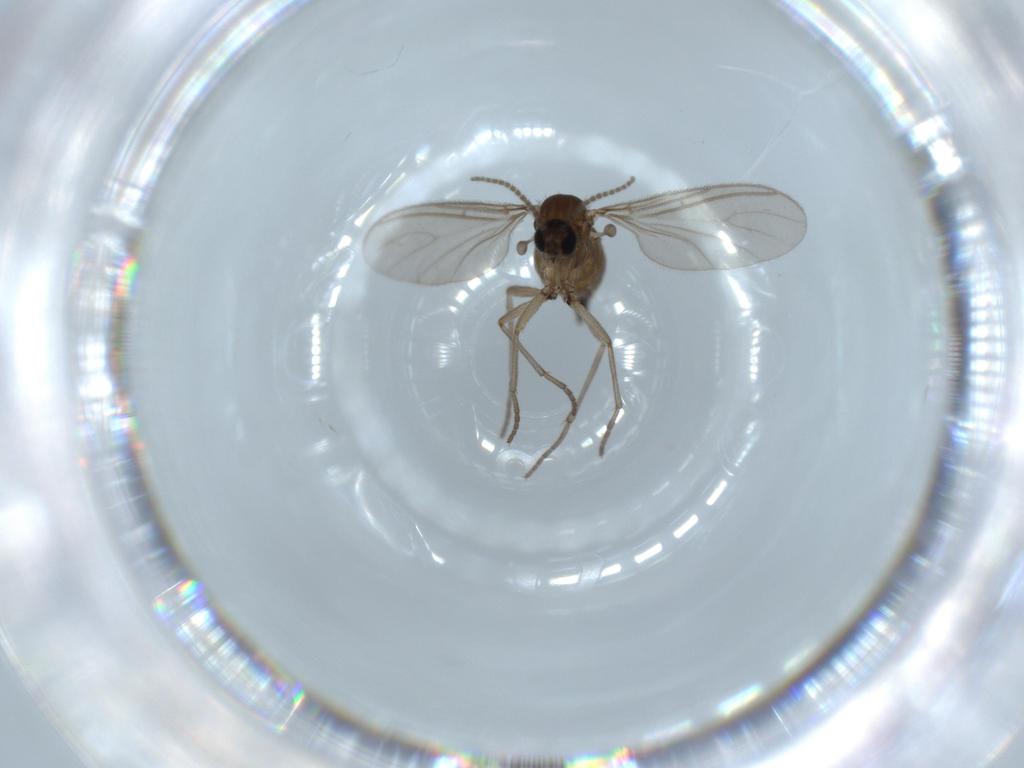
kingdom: Animalia
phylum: Arthropoda
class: Insecta
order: Diptera
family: Sciaridae
